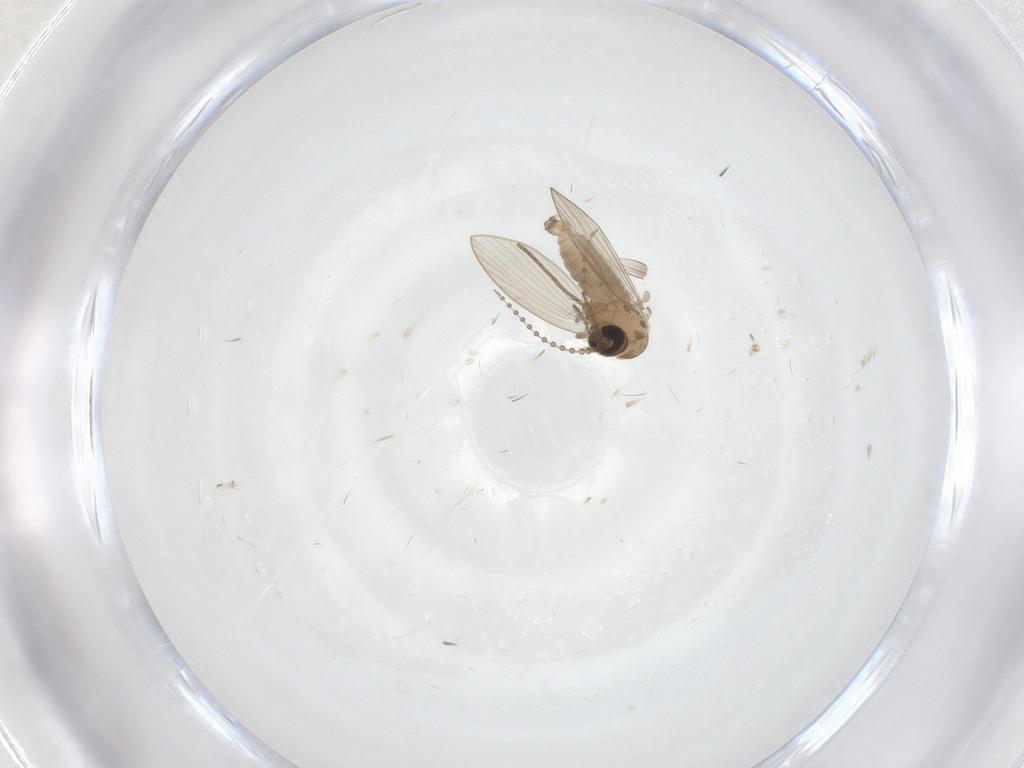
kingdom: Animalia
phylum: Arthropoda
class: Insecta
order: Diptera
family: Psychodidae
